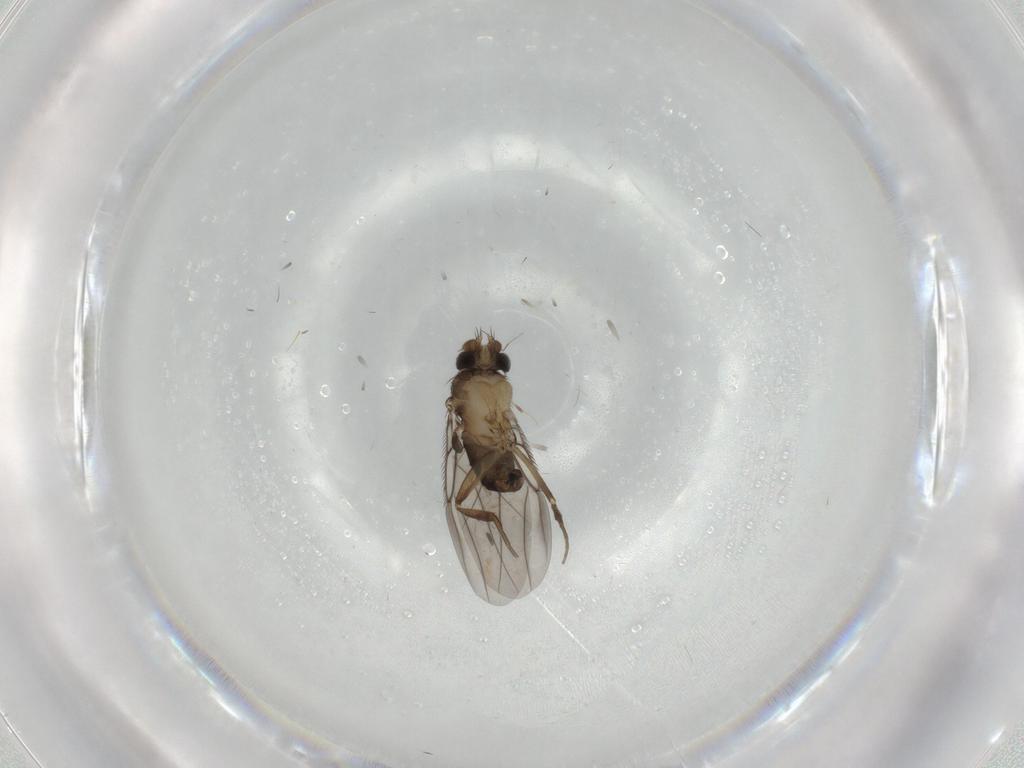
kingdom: Animalia
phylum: Arthropoda
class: Insecta
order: Diptera
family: Phoridae
